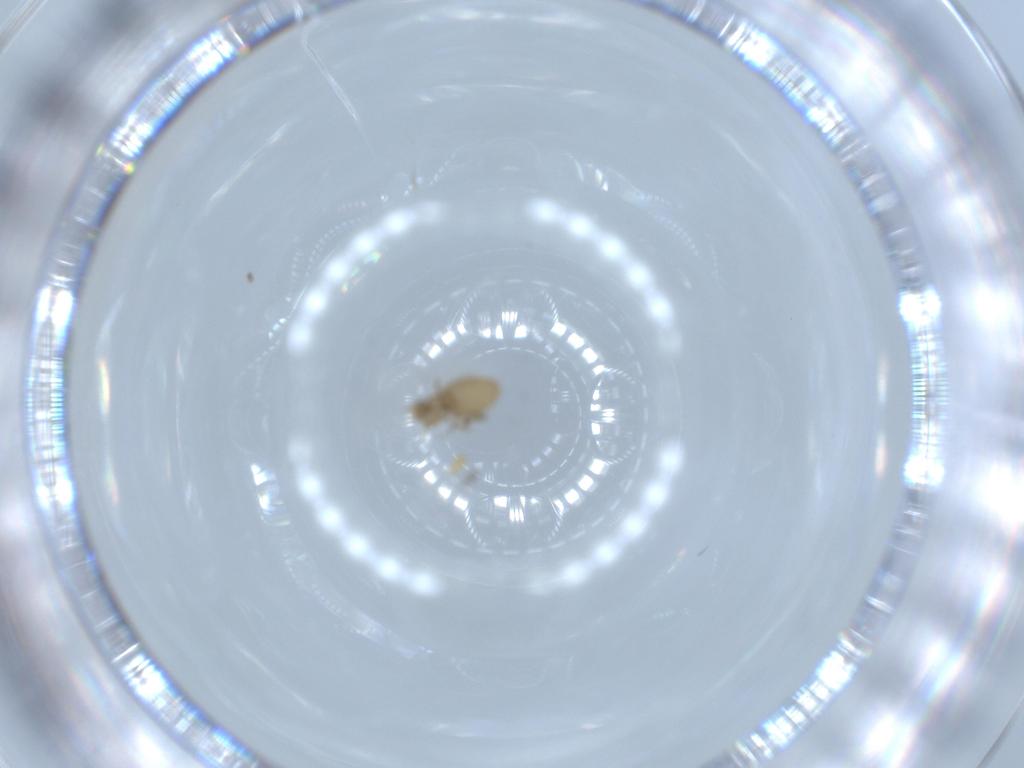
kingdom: Animalia
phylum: Arthropoda
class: Insecta
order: Diptera
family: Phoridae
